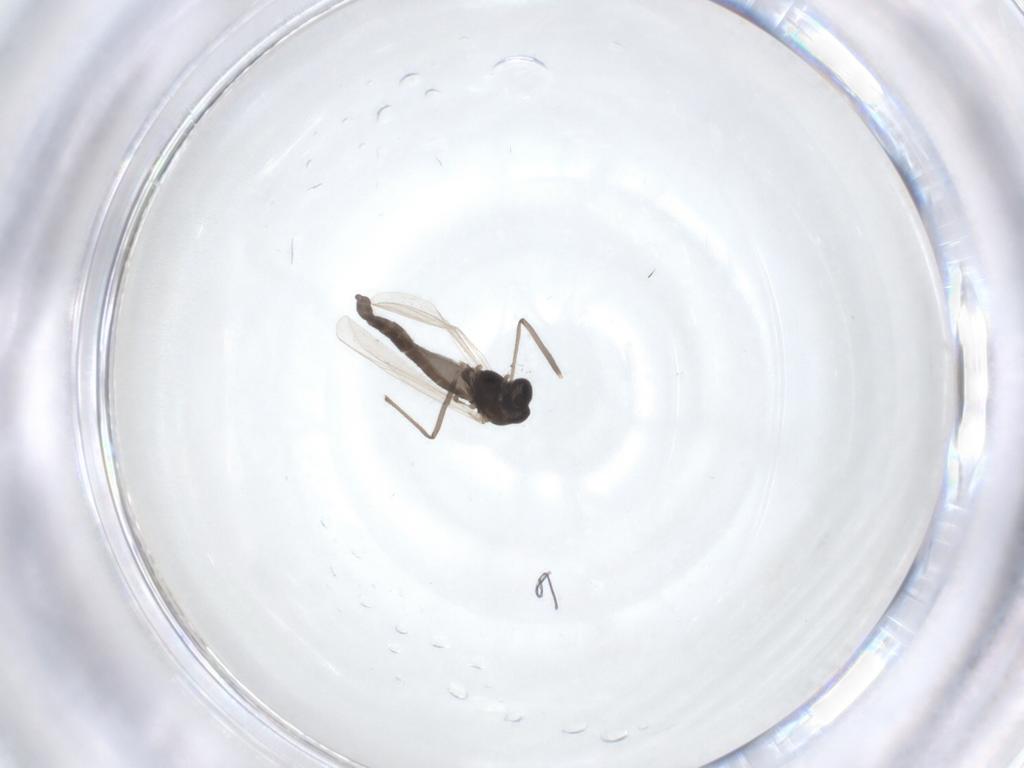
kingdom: Animalia
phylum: Arthropoda
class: Insecta
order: Diptera
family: Chironomidae
